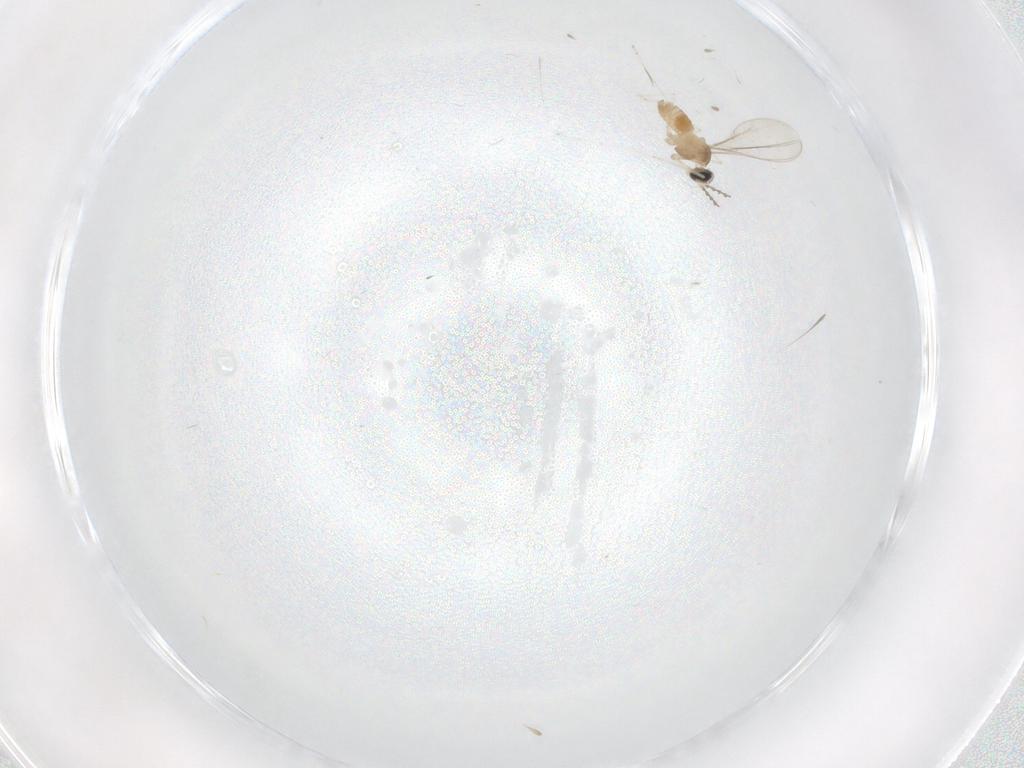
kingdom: Animalia
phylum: Arthropoda
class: Insecta
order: Diptera
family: Cecidomyiidae
